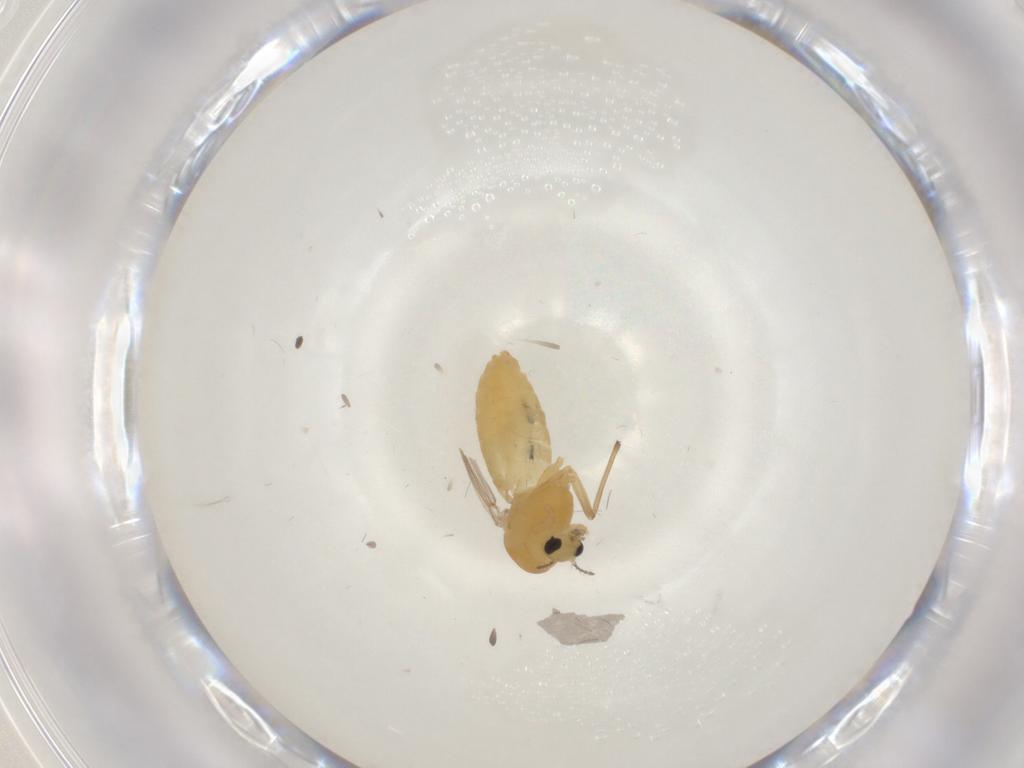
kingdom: Animalia
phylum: Arthropoda
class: Insecta
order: Diptera
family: Chironomidae
